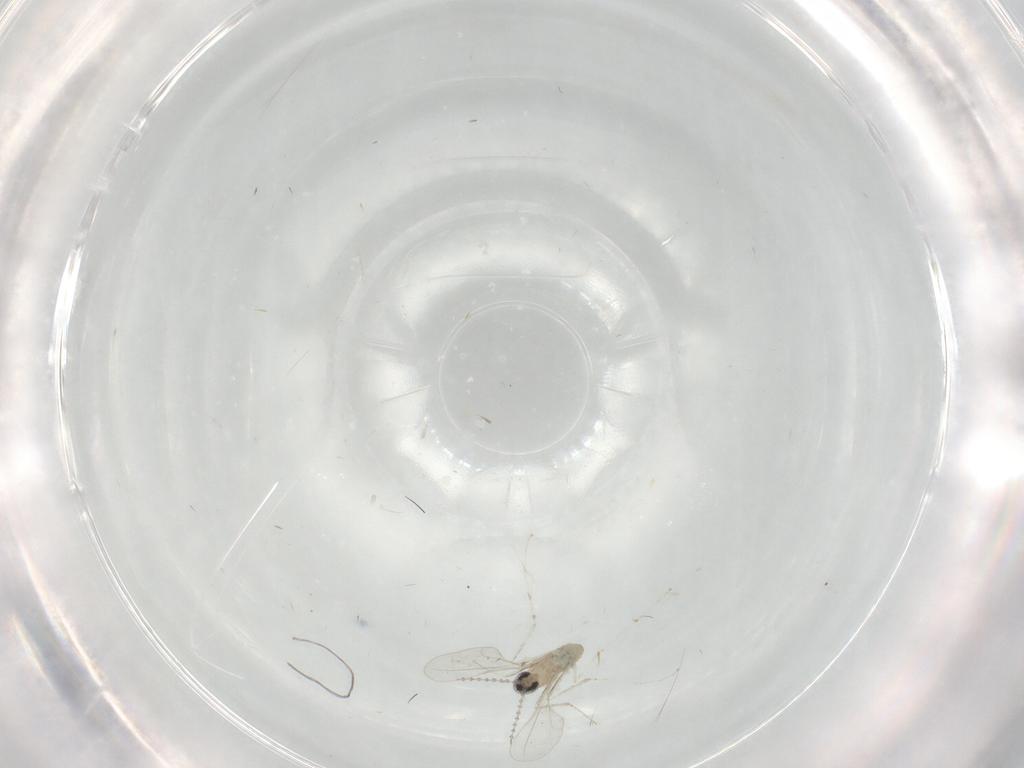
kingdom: Animalia
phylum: Arthropoda
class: Insecta
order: Diptera
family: Cecidomyiidae
